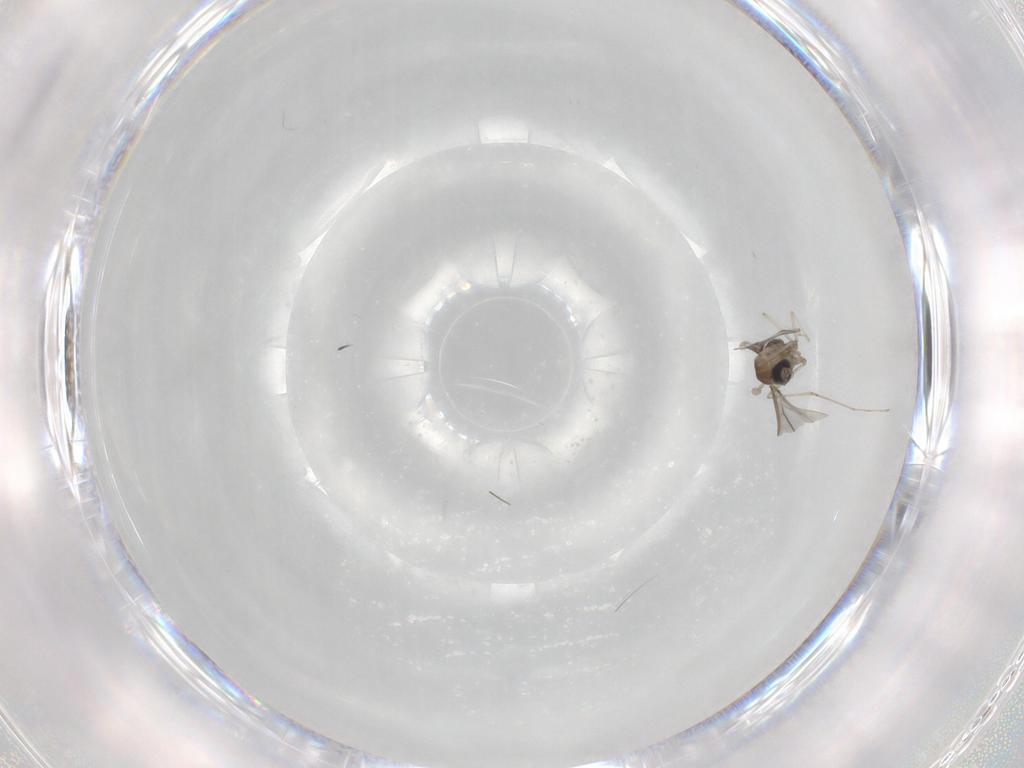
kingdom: Animalia
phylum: Arthropoda
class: Insecta
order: Diptera
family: Cecidomyiidae
